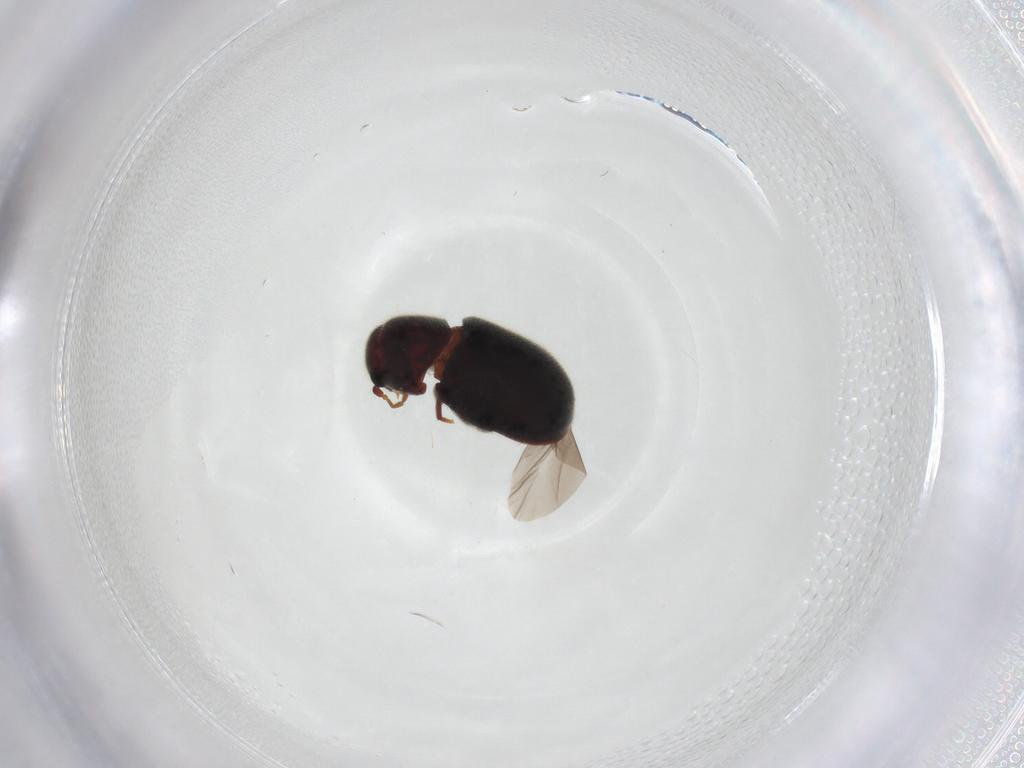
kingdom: Animalia
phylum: Arthropoda
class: Insecta
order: Coleoptera
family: Ptinidae
